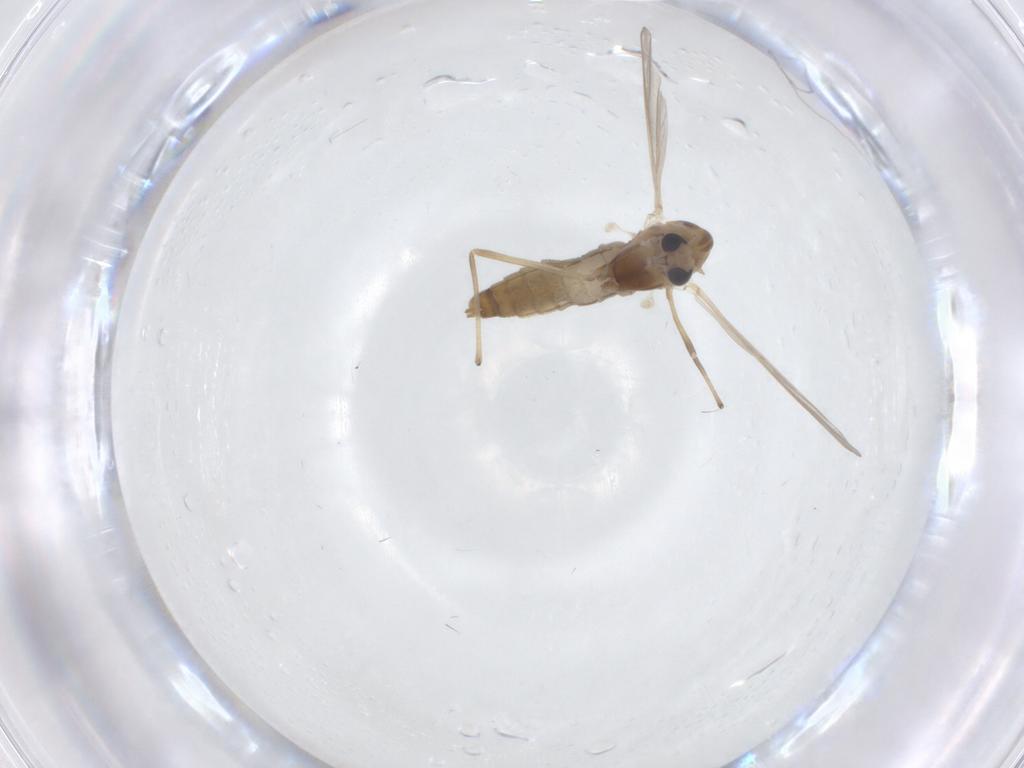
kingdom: Animalia
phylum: Arthropoda
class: Insecta
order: Diptera
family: Chironomidae
